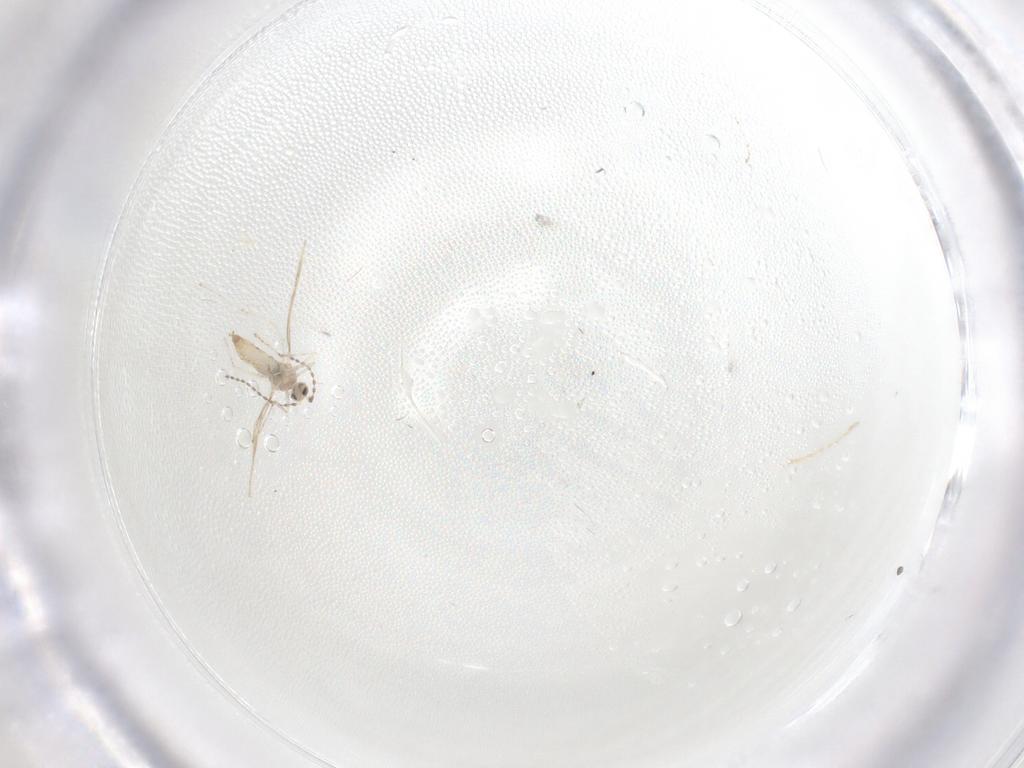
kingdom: Animalia
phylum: Arthropoda
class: Insecta
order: Diptera
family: Cecidomyiidae
